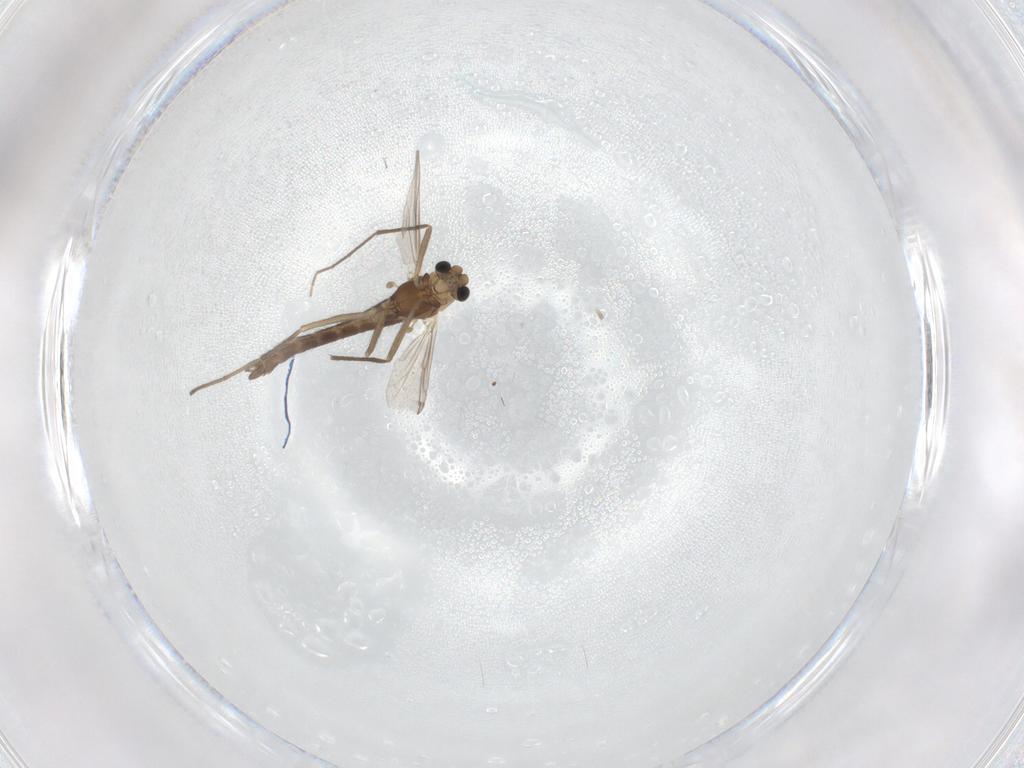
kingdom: Animalia
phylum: Arthropoda
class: Insecta
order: Diptera
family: Chironomidae
